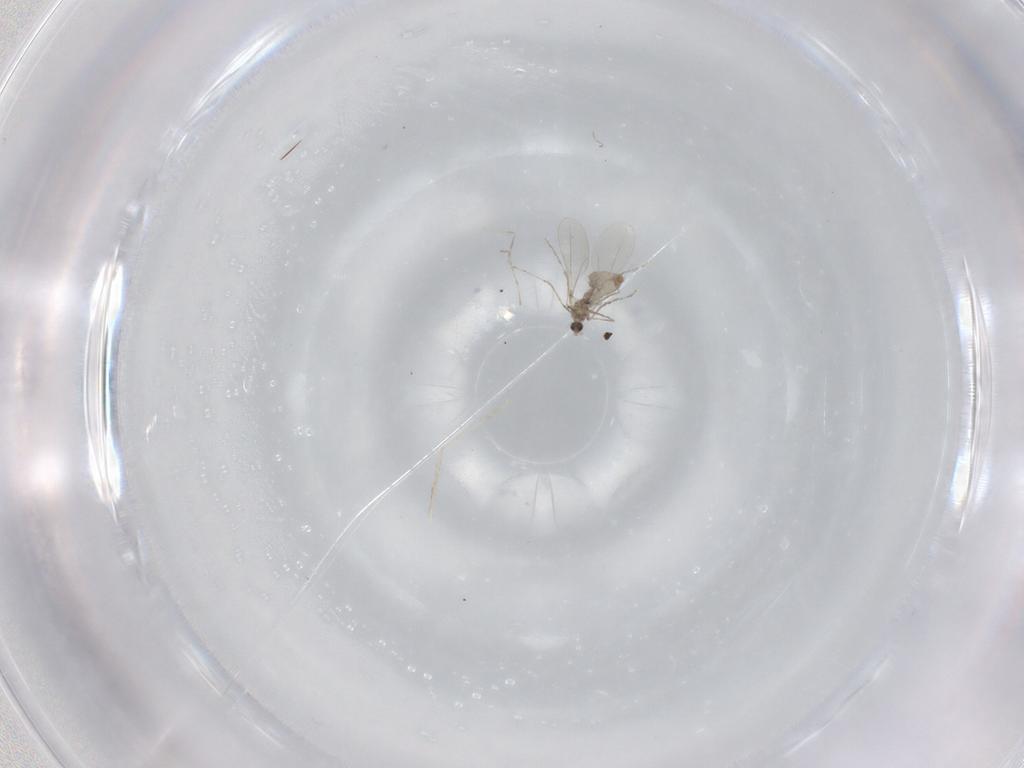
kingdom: Animalia
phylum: Arthropoda
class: Insecta
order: Diptera
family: Cecidomyiidae
